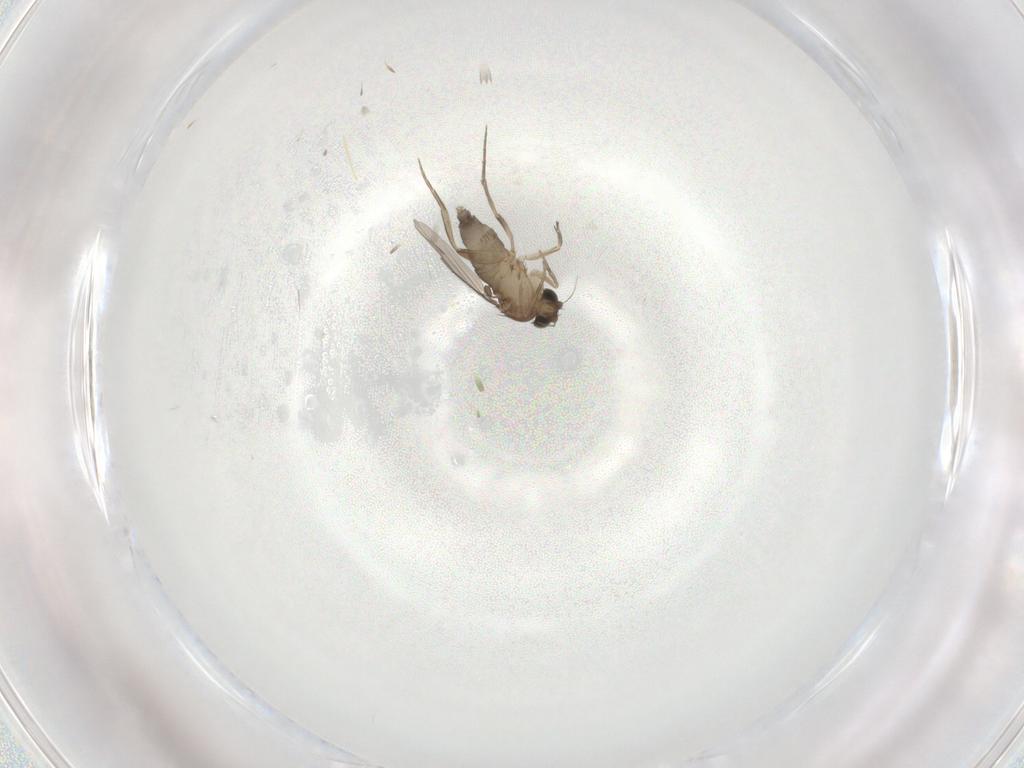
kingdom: Animalia
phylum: Arthropoda
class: Insecta
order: Diptera
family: Phoridae
